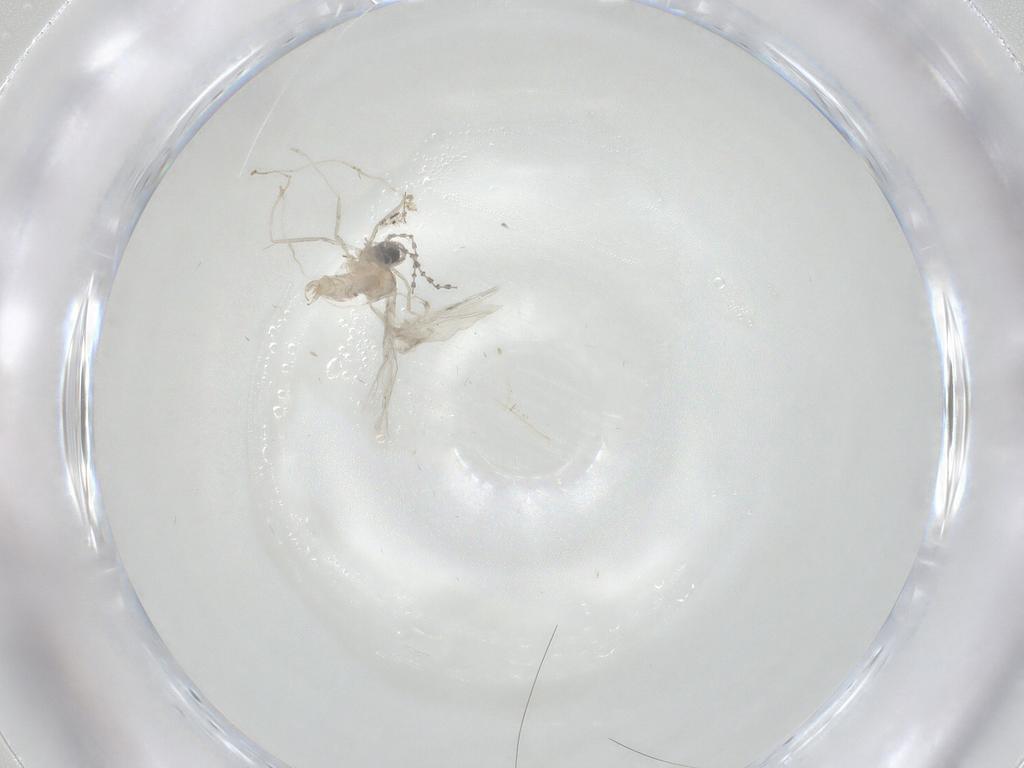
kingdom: Animalia
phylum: Arthropoda
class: Insecta
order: Diptera
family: Cecidomyiidae
